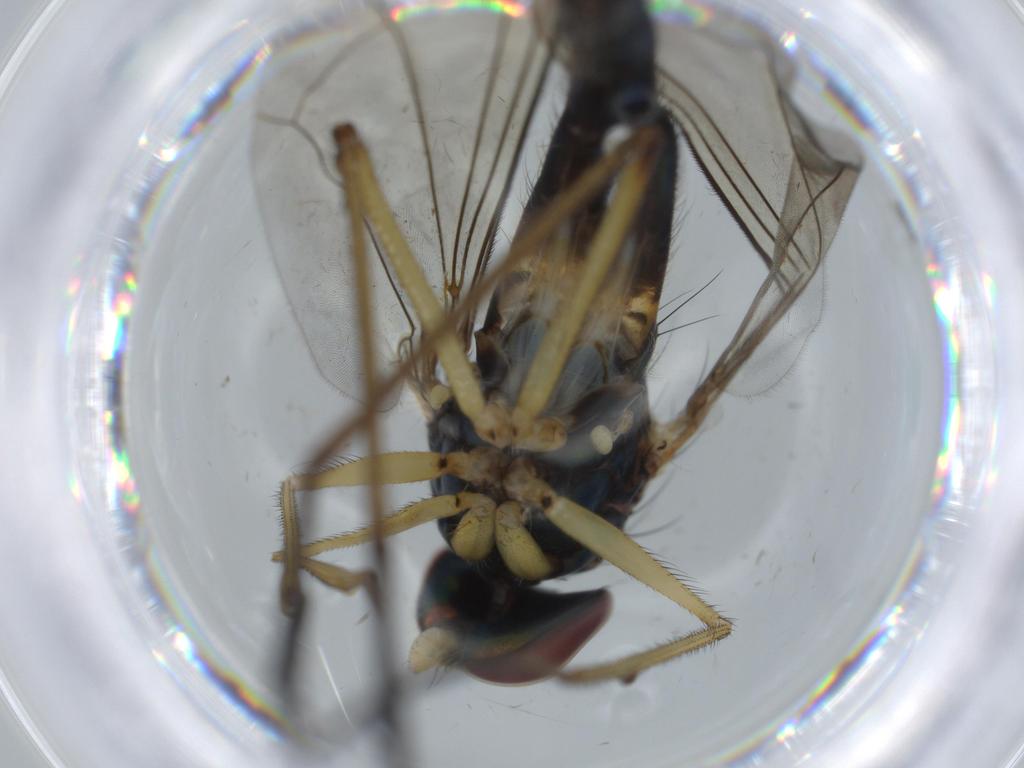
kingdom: Animalia
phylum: Arthropoda
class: Insecta
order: Diptera
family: Dolichopodidae
